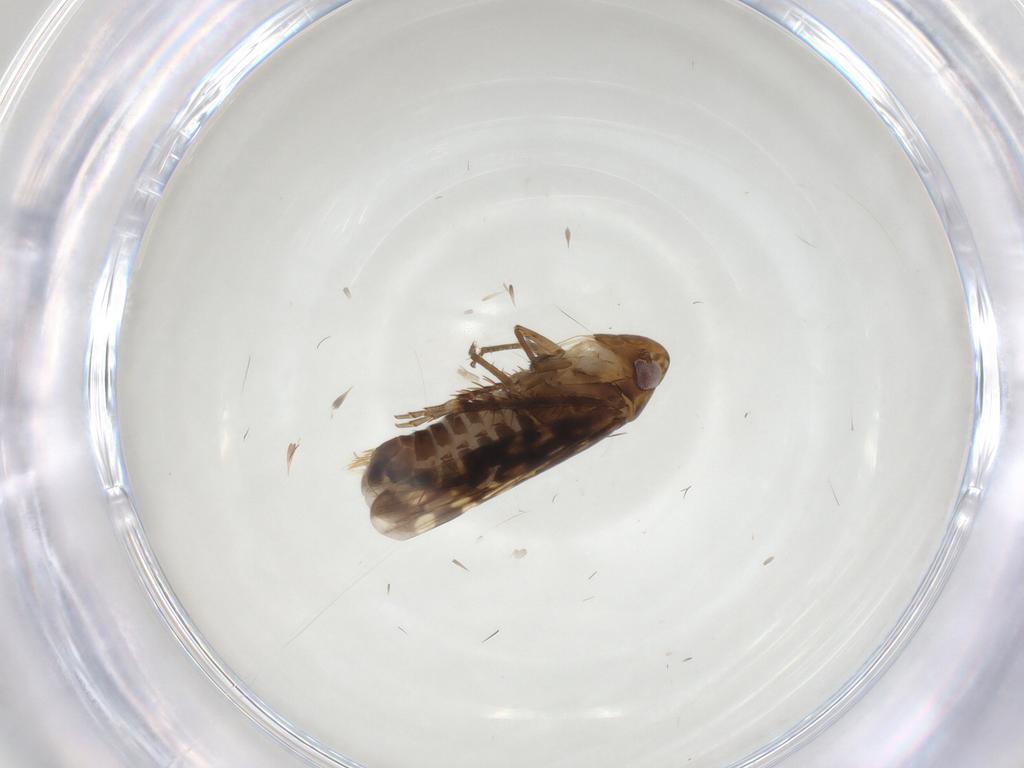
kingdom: Animalia
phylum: Arthropoda
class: Insecta
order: Hemiptera
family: Cicadellidae
